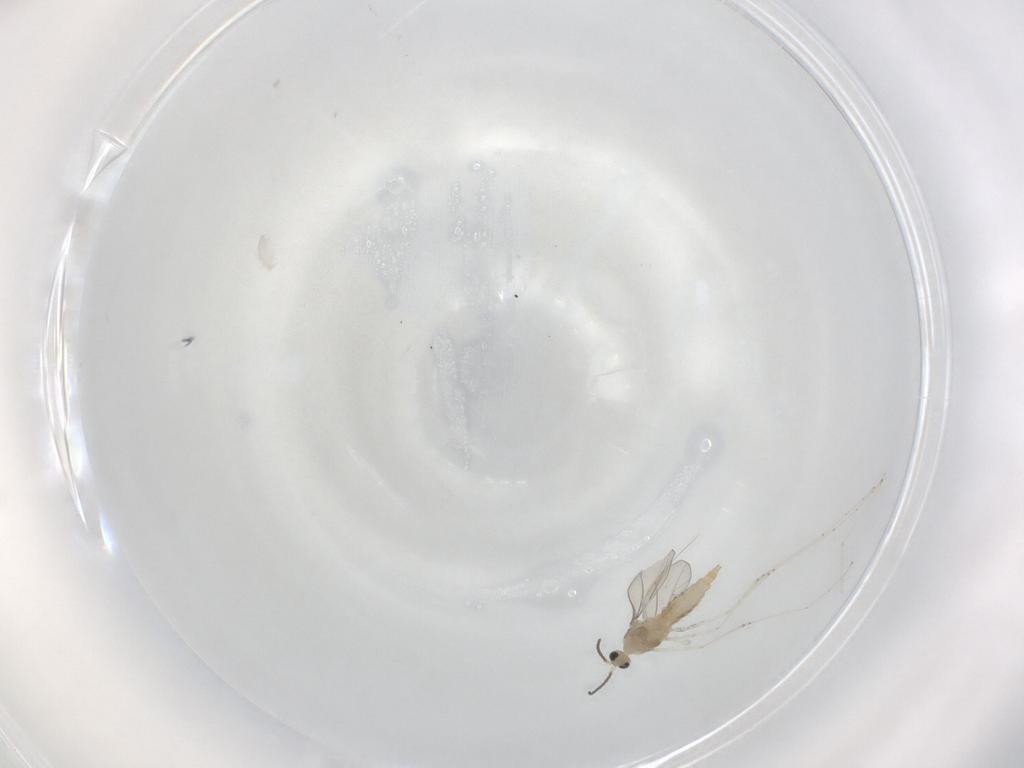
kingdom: Animalia
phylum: Arthropoda
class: Insecta
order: Diptera
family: Cecidomyiidae
